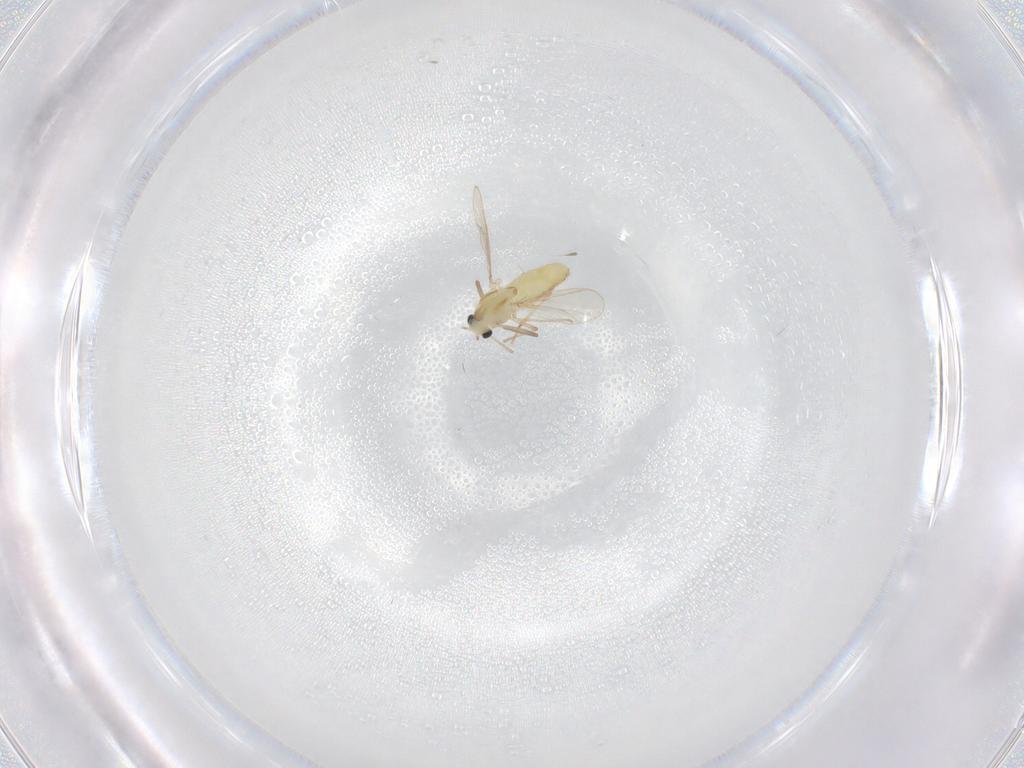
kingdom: Animalia
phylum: Arthropoda
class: Insecta
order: Diptera
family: Chironomidae
